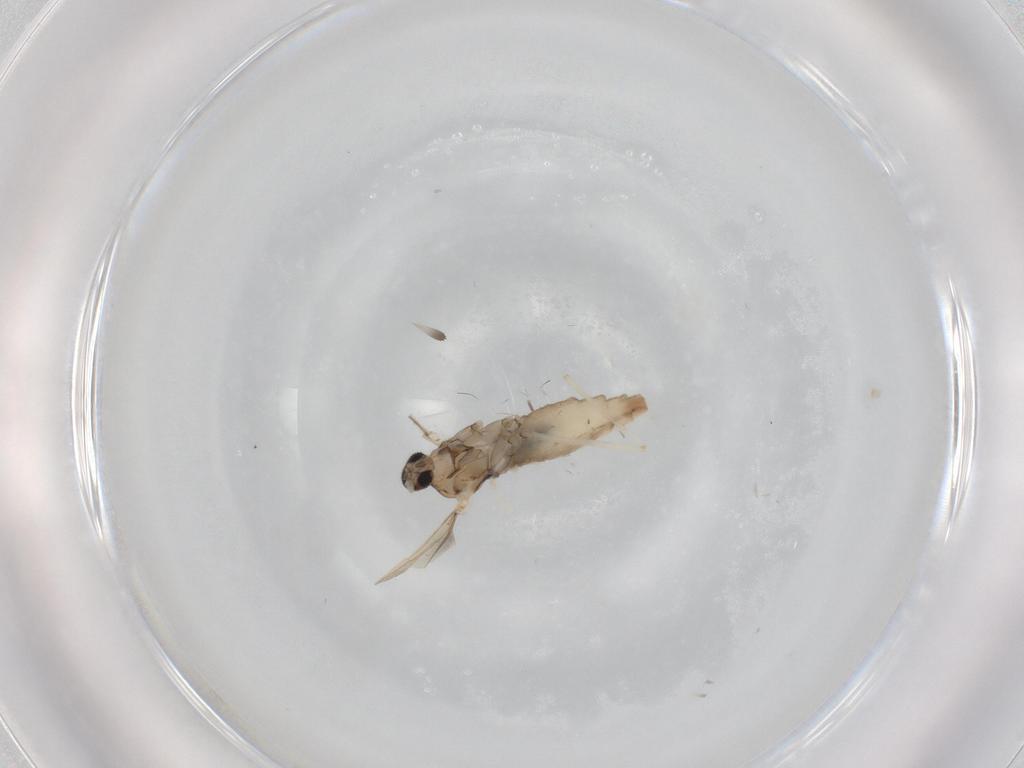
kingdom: Animalia
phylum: Arthropoda
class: Insecta
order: Diptera
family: Cecidomyiidae
